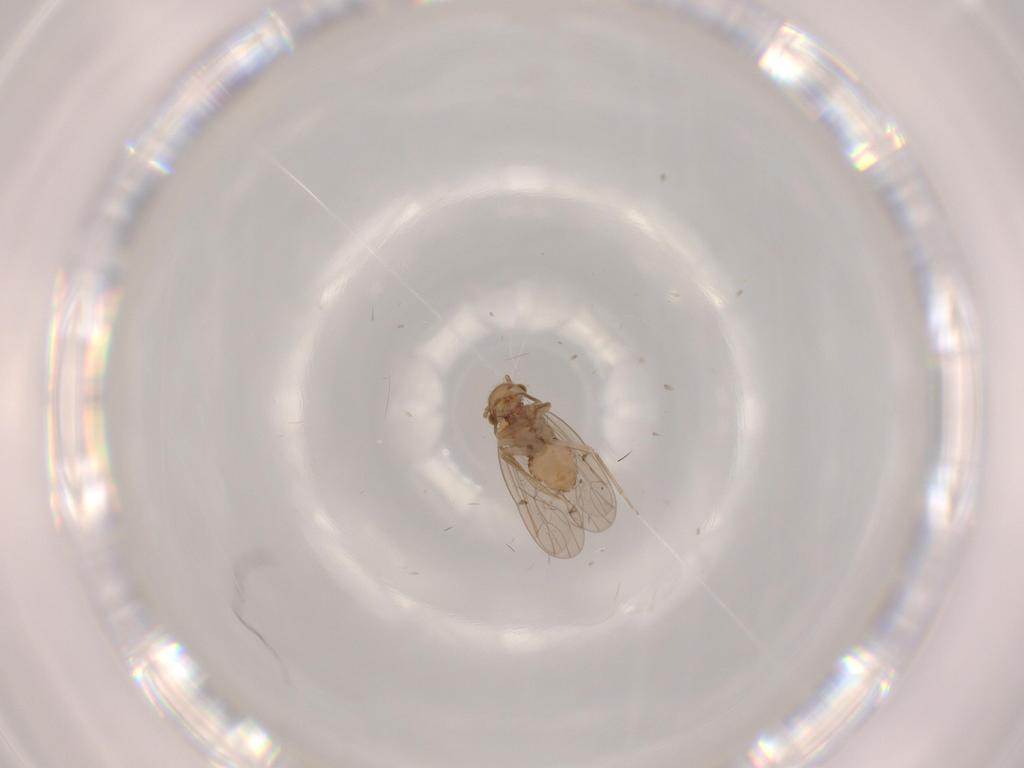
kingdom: Animalia
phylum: Arthropoda
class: Insecta
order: Psocodea
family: Ectopsocidae
